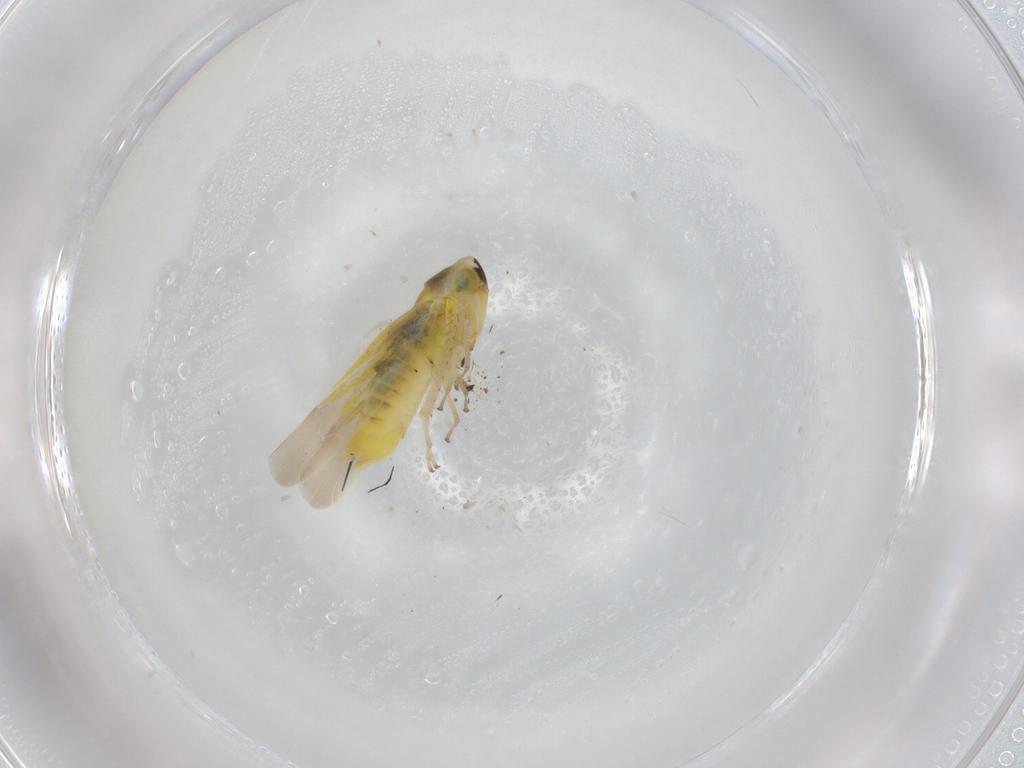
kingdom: Animalia
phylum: Arthropoda
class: Insecta
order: Hemiptera
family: Cicadellidae
